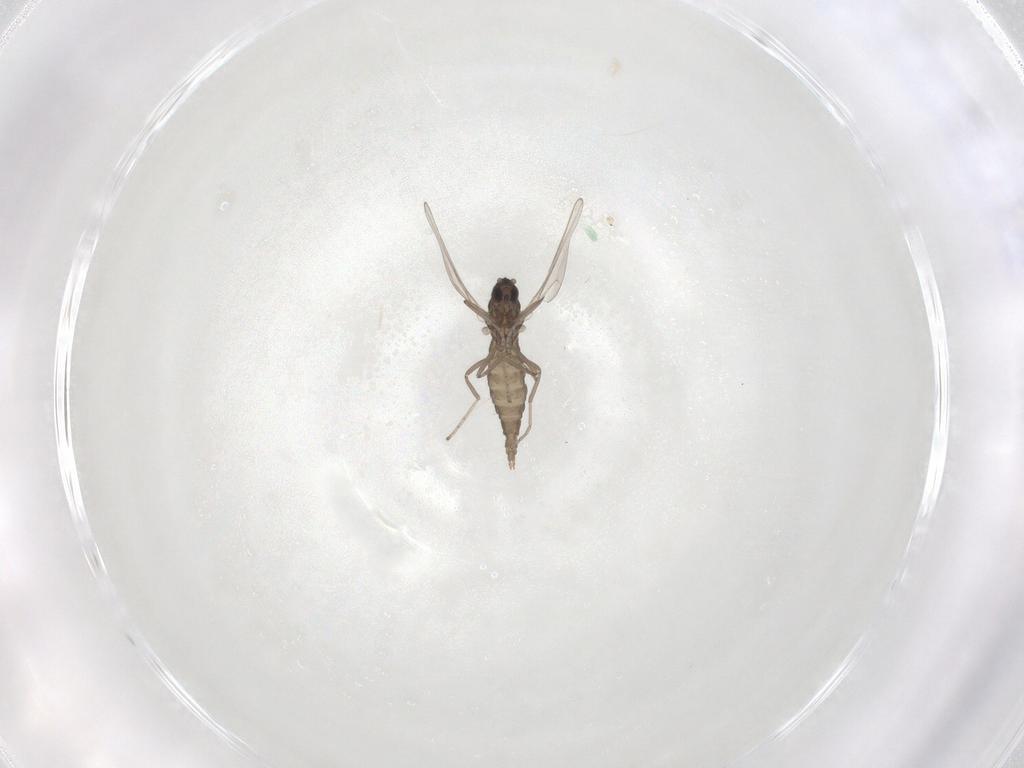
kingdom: Animalia
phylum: Arthropoda
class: Insecta
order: Diptera
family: Cecidomyiidae
